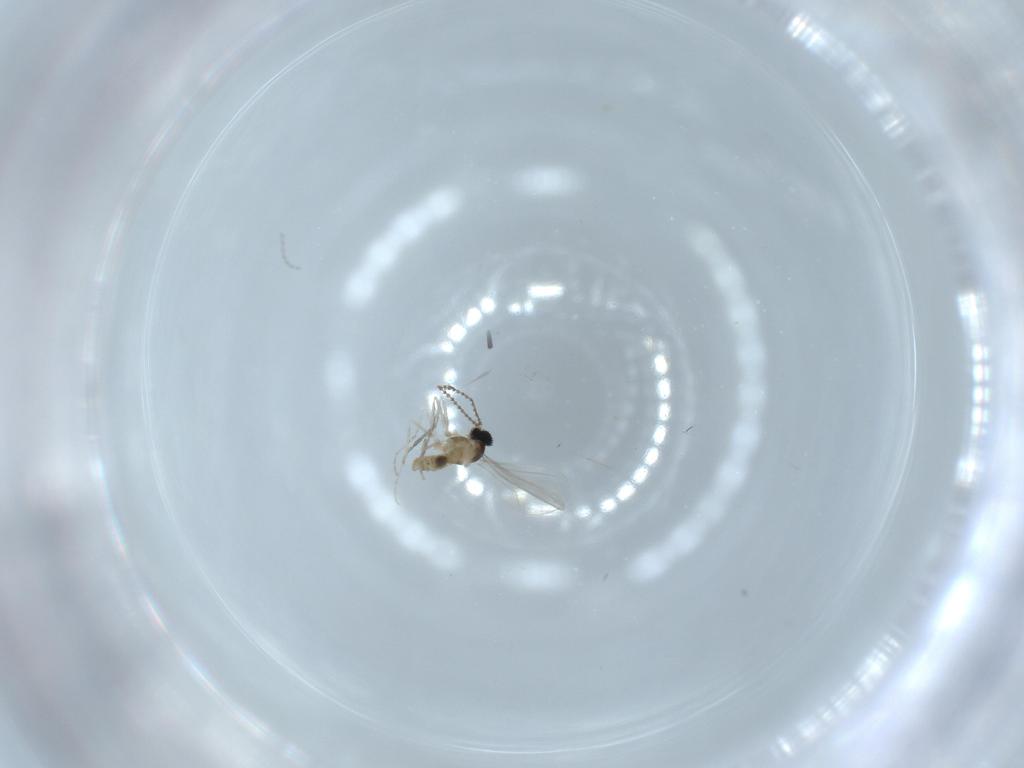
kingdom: Animalia
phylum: Arthropoda
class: Insecta
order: Diptera
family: Cecidomyiidae
